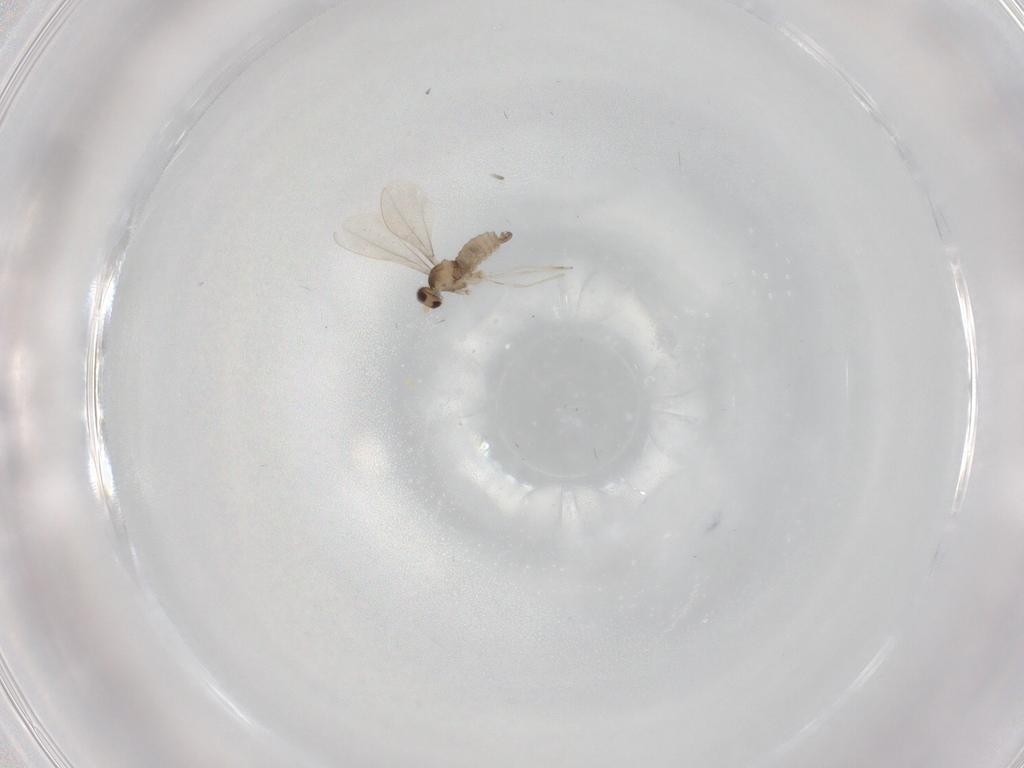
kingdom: Animalia
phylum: Arthropoda
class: Insecta
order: Diptera
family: Cecidomyiidae
